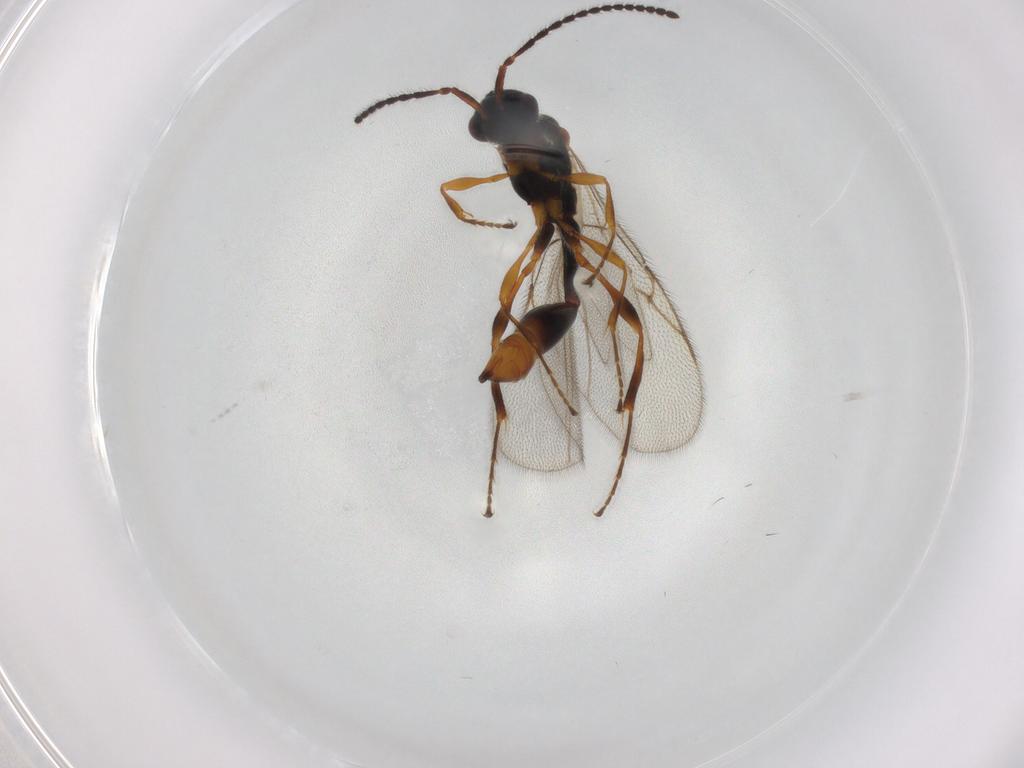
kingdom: Animalia
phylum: Arthropoda
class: Insecta
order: Hymenoptera
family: Diapriidae
